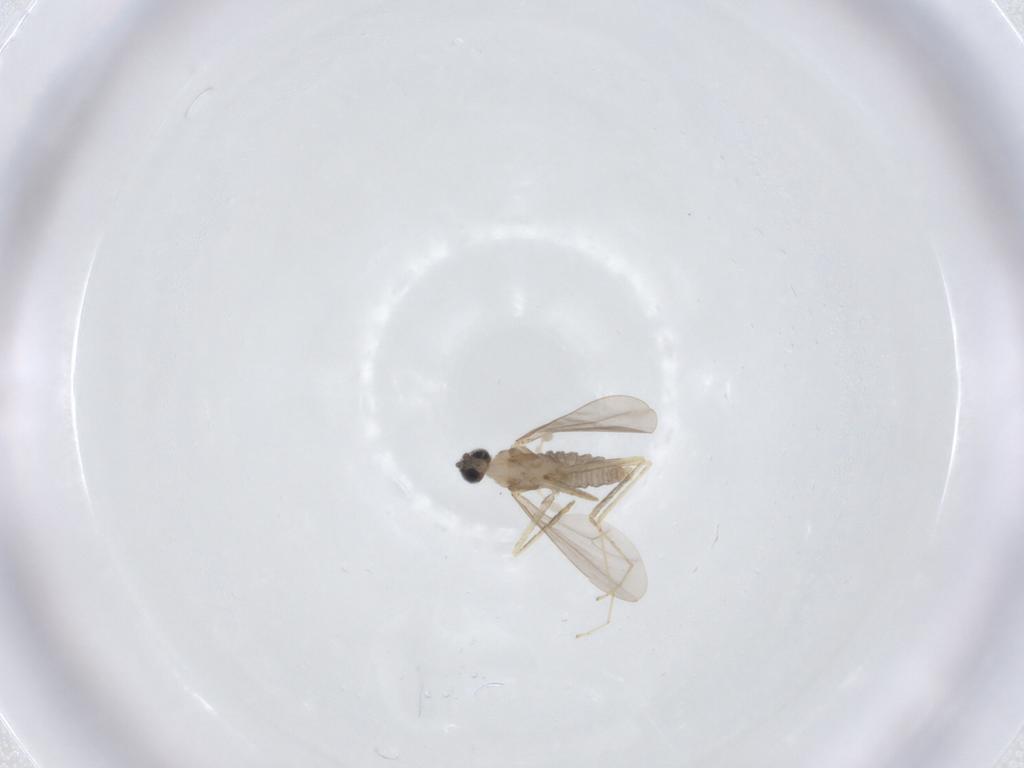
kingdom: Animalia
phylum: Arthropoda
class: Insecta
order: Diptera
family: Cecidomyiidae
